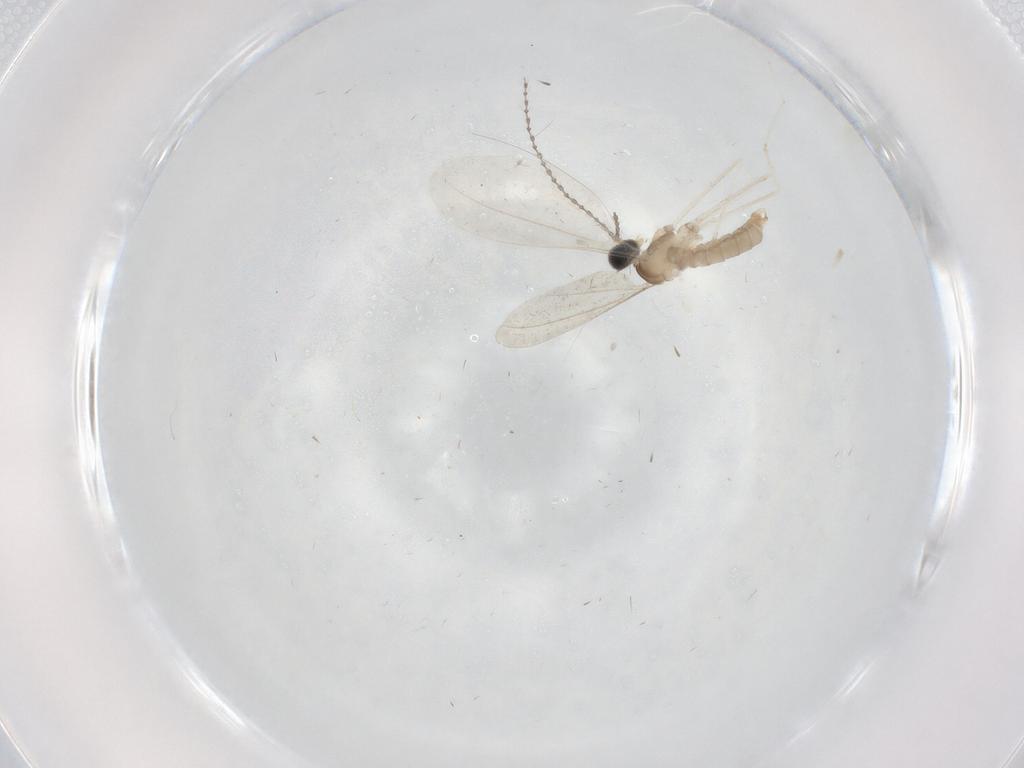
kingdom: Animalia
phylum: Arthropoda
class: Insecta
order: Diptera
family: Cecidomyiidae
